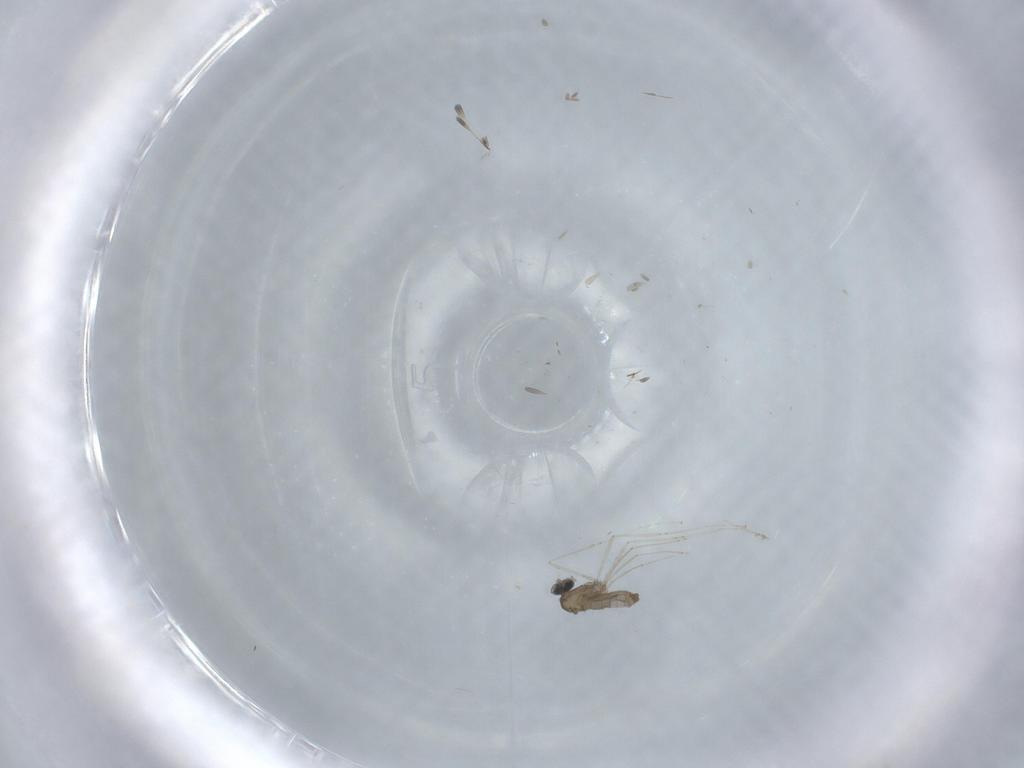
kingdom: Animalia
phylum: Arthropoda
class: Insecta
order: Diptera
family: Cecidomyiidae
